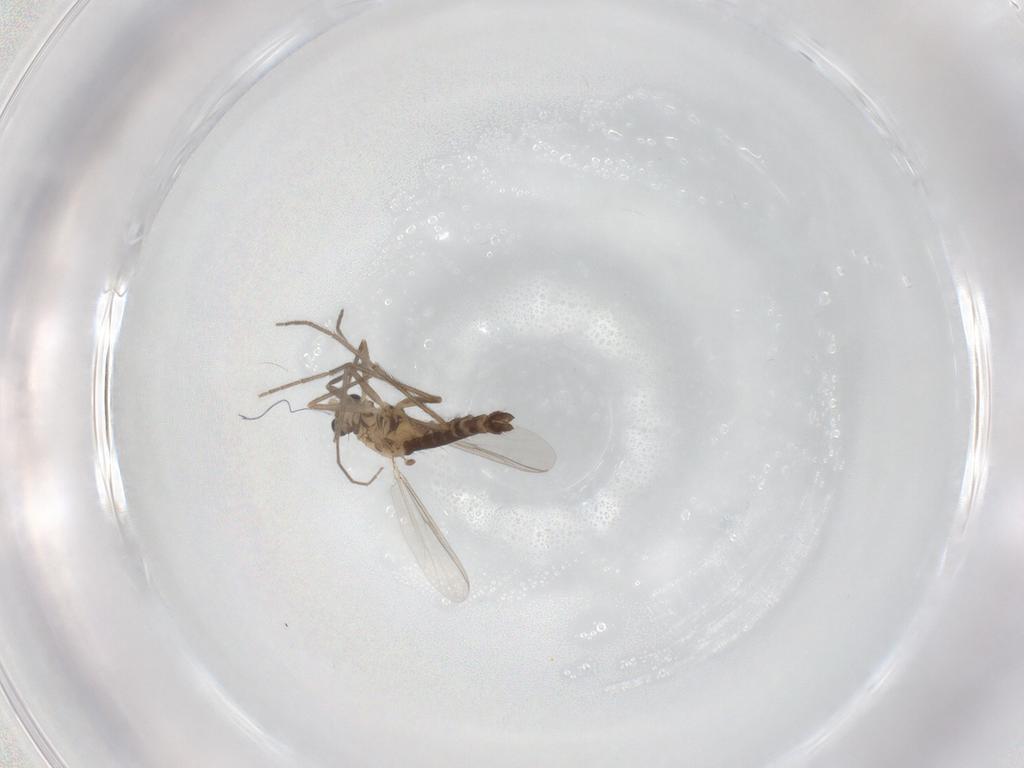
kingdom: Animalia
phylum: Arthropoda
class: Insecta
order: Diptera
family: Chironomidae
